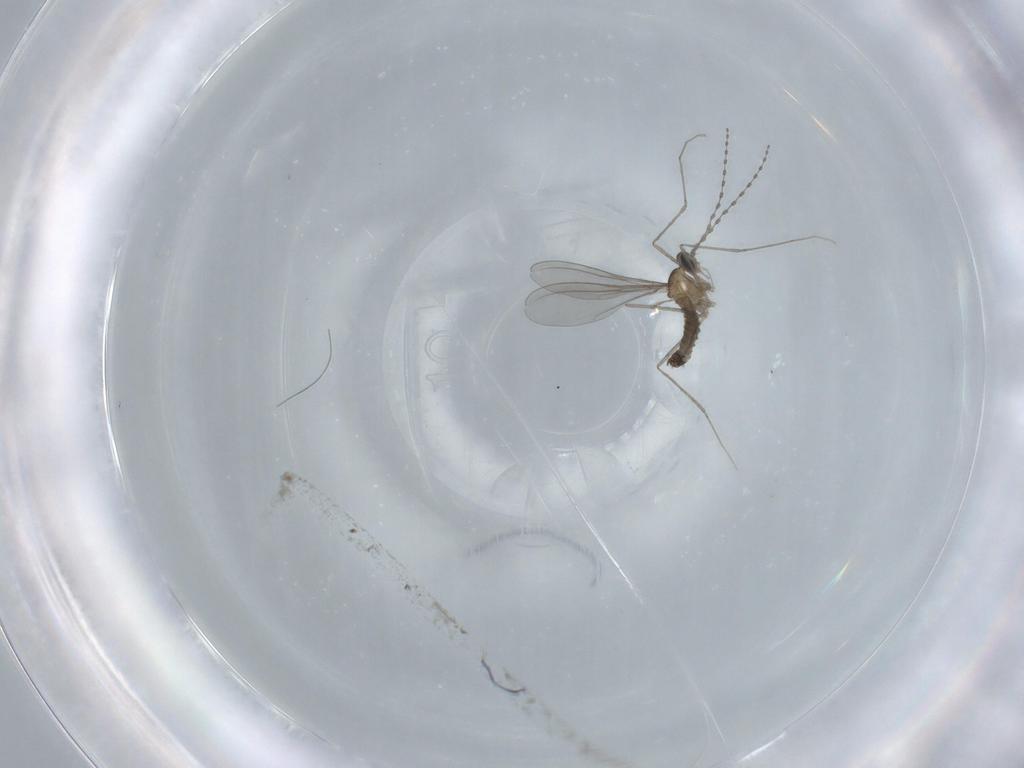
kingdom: Animalia
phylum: Arthropoda
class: Insecta
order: Diptera
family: Cecidomyiidae
